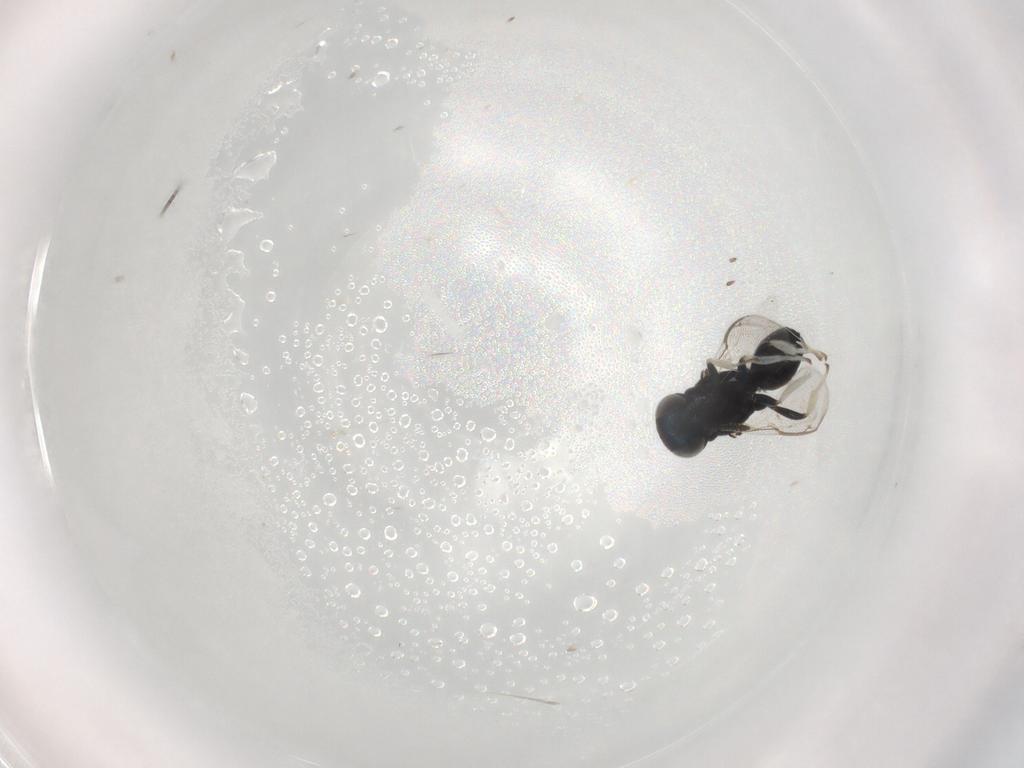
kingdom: Animalia
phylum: Arthropoda
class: Insecta
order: Hymenoptera
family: Herbertiidae
